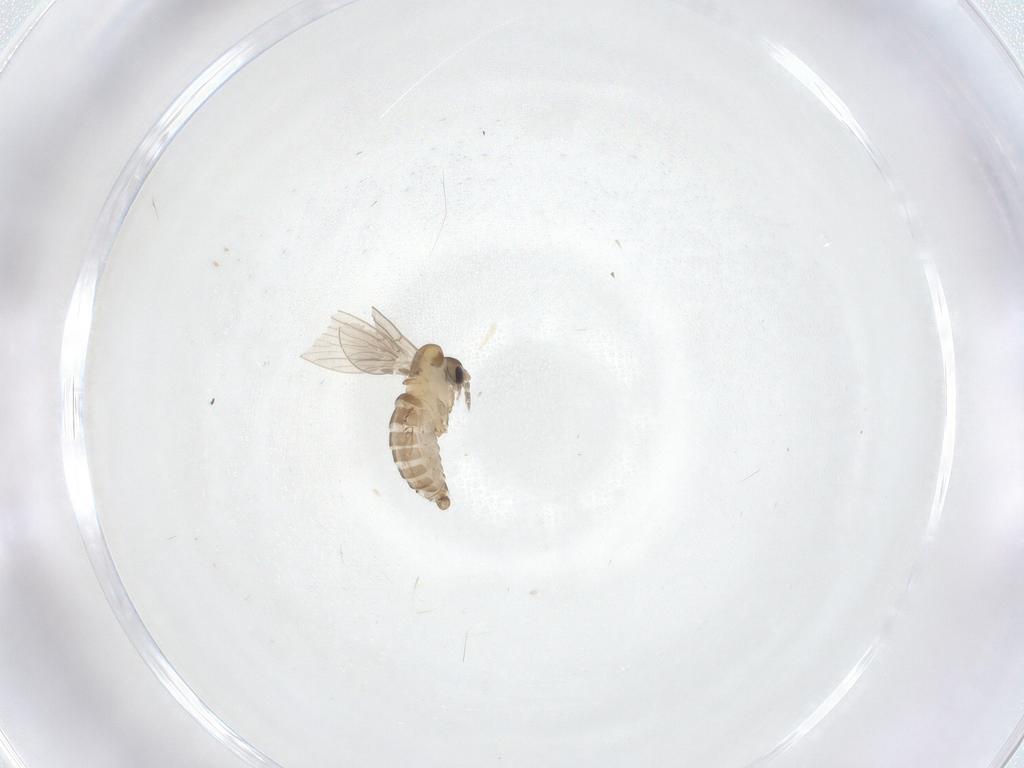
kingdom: Animalia
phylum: Arthropoda
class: Insecta
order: Diptera
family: Psychodidae
